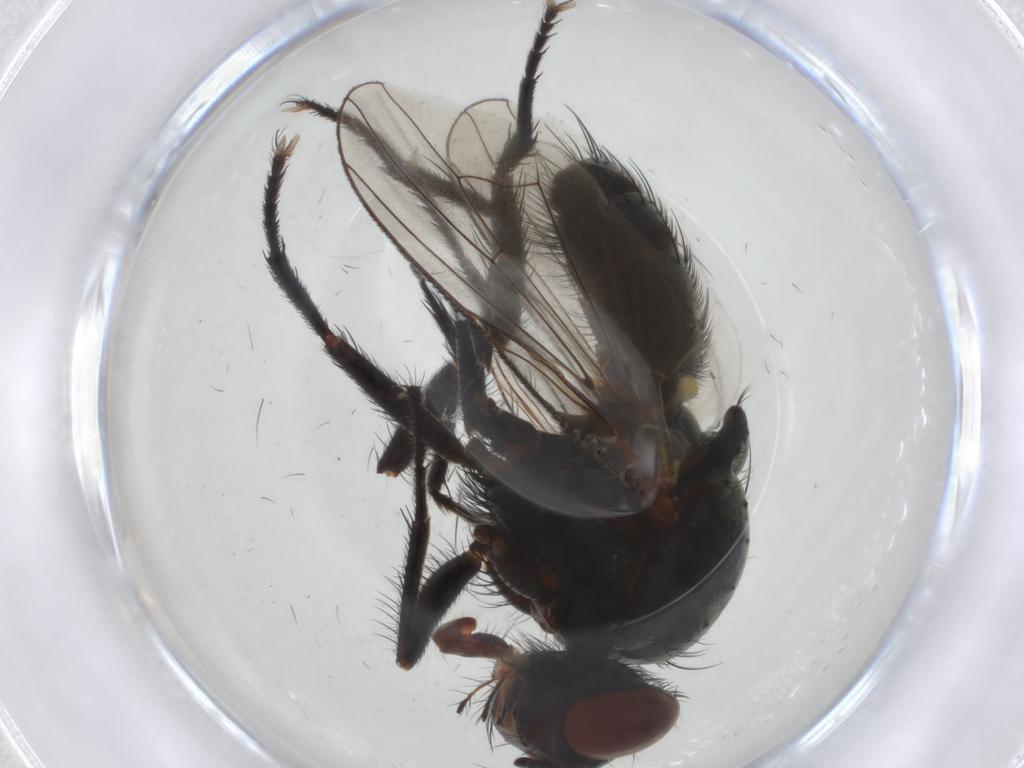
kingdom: Animalia
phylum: Arthropoda
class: Insecta
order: Diptera
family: Anthomyiidae
